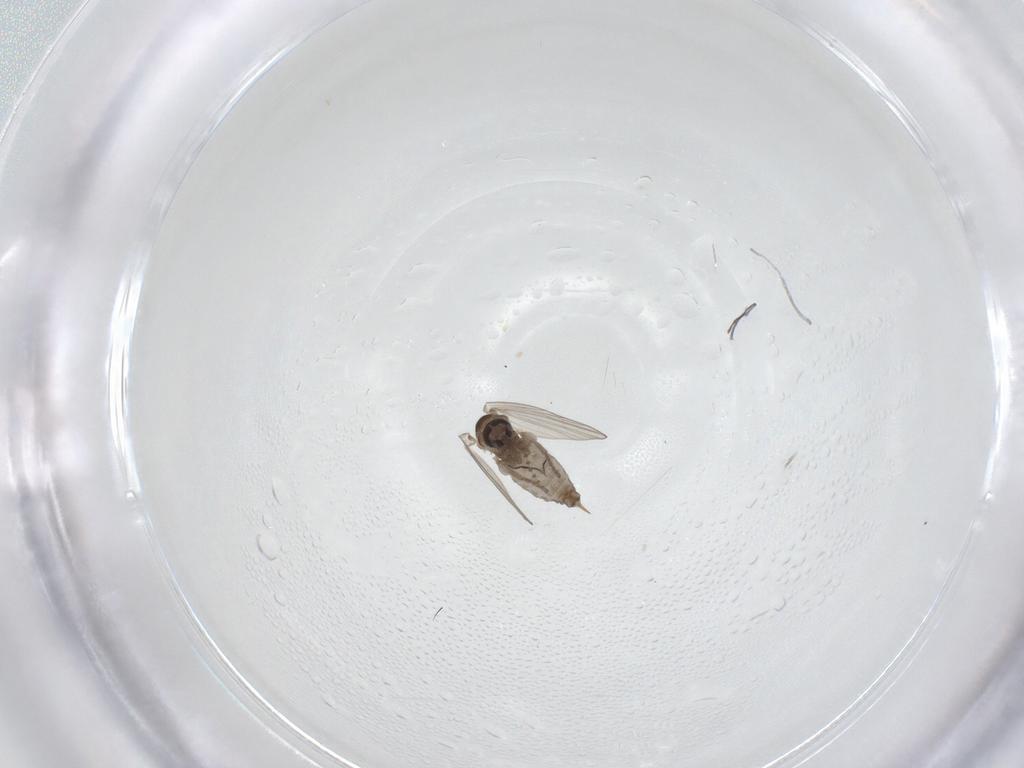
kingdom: Animalia
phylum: Arthropoda
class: Insecta
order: Diptera
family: Psychodidae
